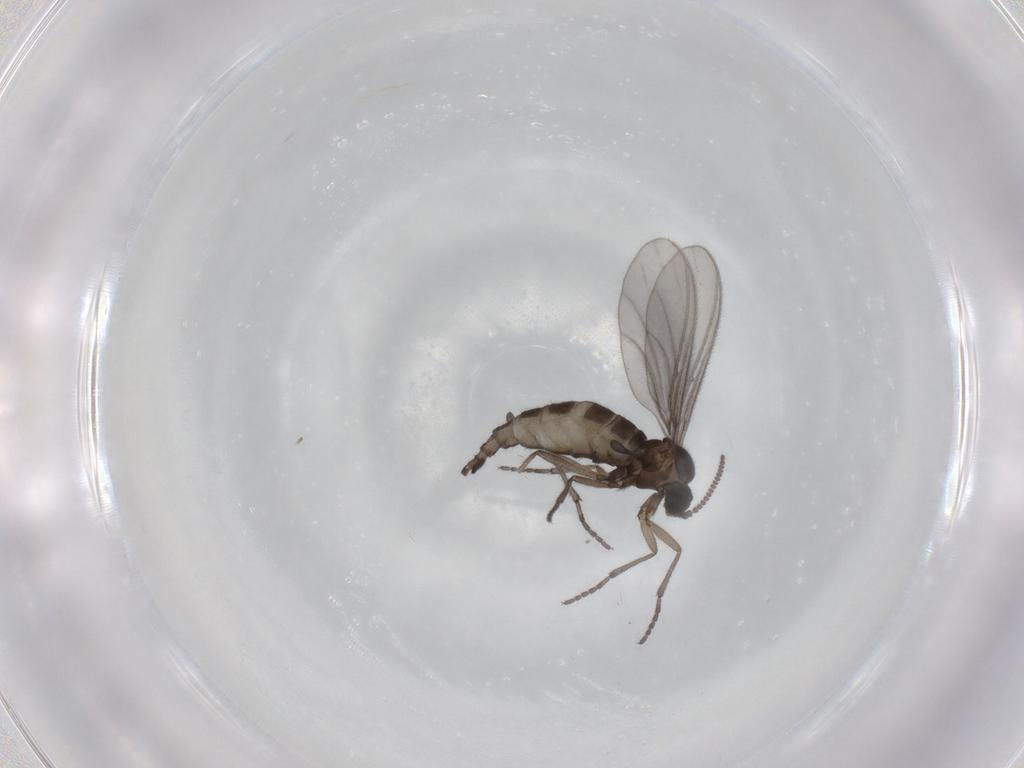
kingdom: Animalia
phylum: Arthropoda
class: Insecta
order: Diptera
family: Sciaridae
